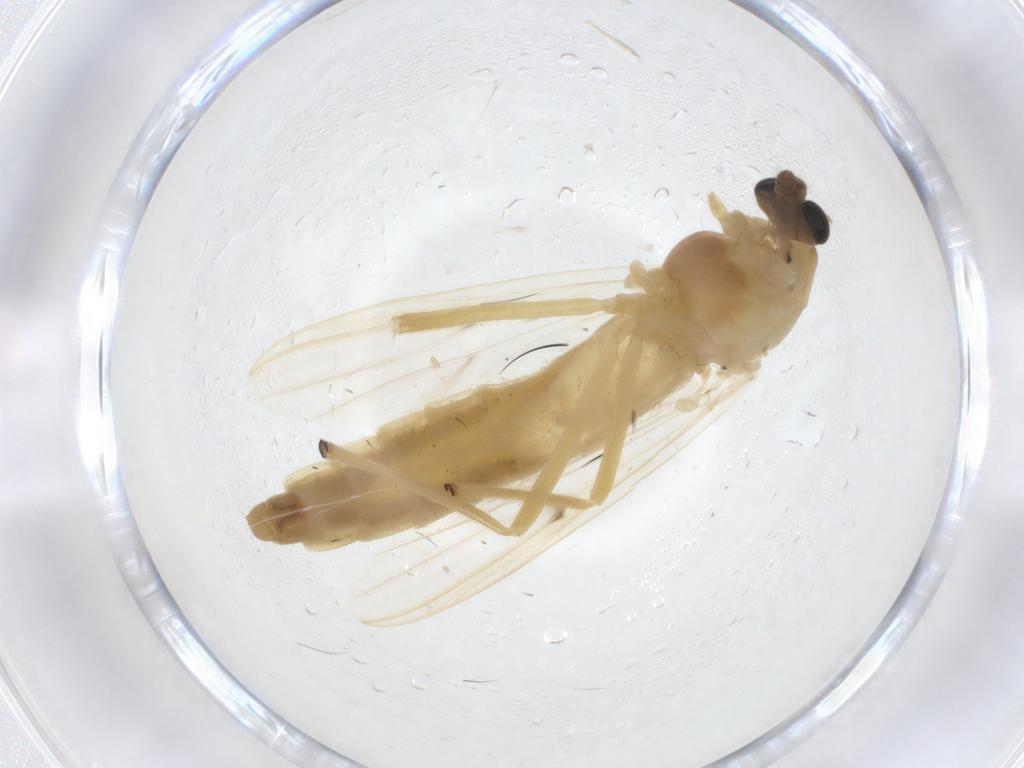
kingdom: Animalia
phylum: Arthropoda
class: Insecta
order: Diptera
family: Chironomidae
